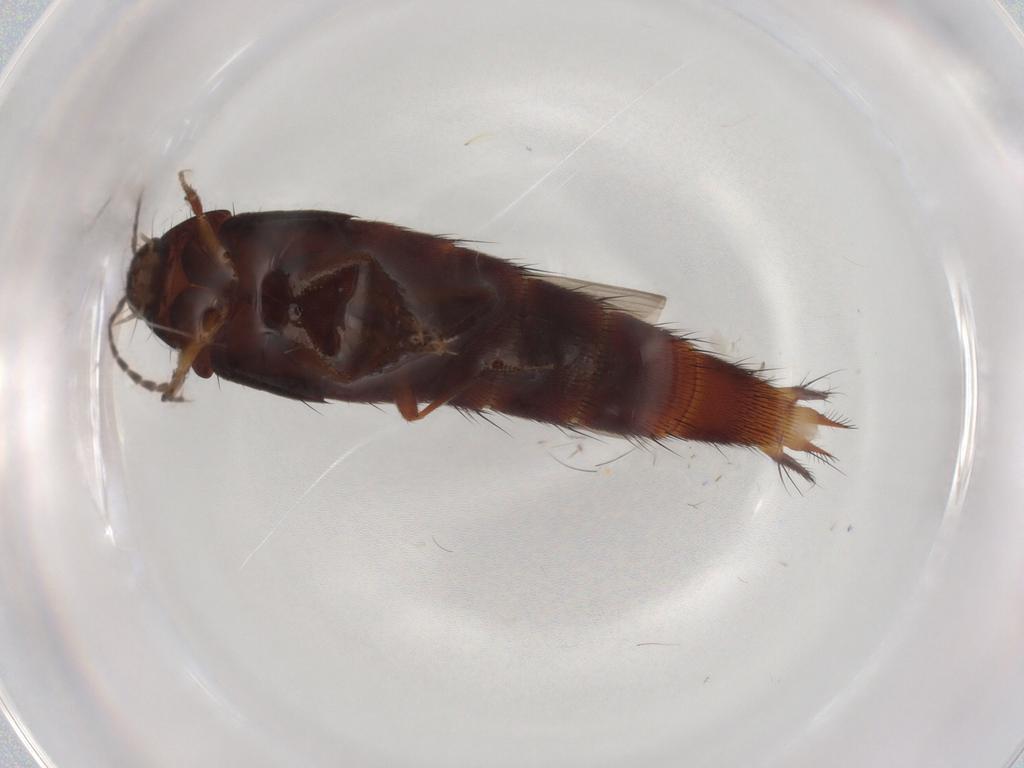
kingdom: Animalia
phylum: Arthropoda
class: Insecta
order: Coleoptera
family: Staphylinidae
